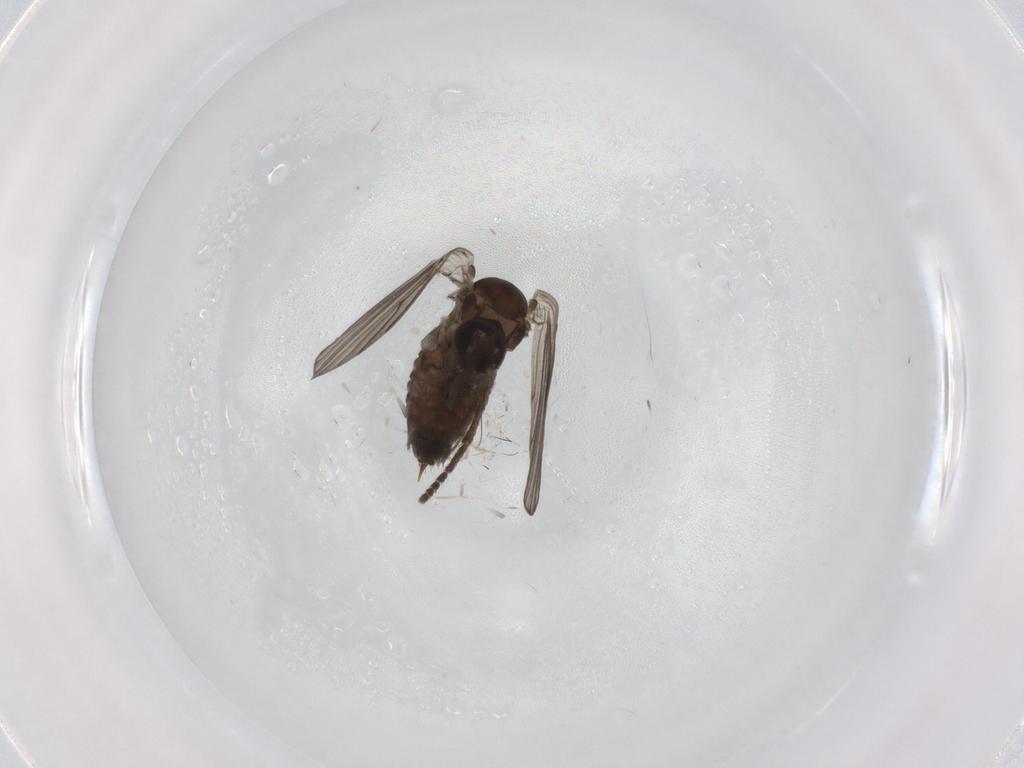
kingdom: Animalia
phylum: Arthropoda
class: Insecta
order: Diptera
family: Psychodidae
